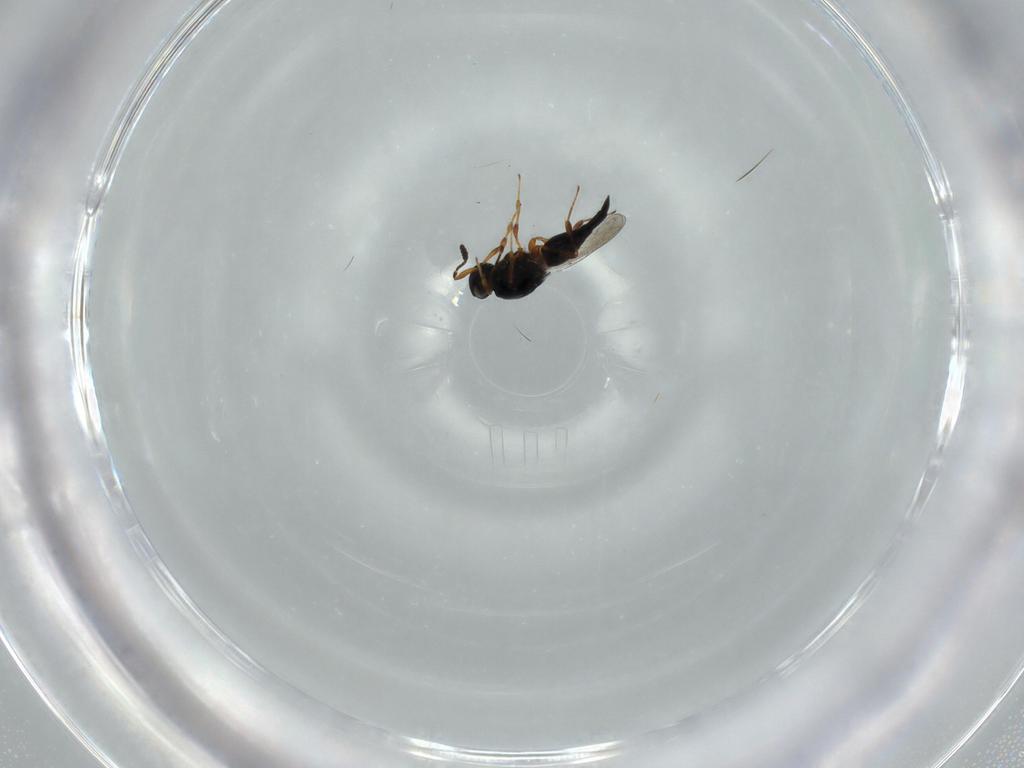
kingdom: Animalia
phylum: Arthropoda
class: Insecta
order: Hymenoptera
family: Platygastridae
